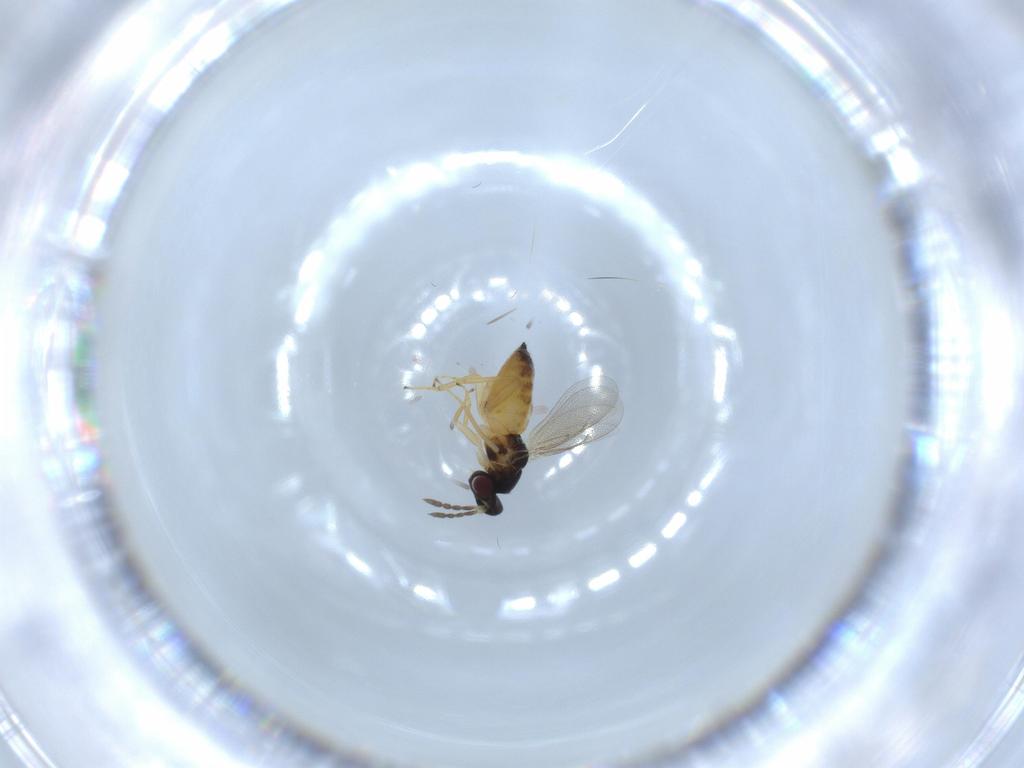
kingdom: Animalia
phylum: Arthropoda
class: Insecta
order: Hymenoptera
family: Eulophidae
